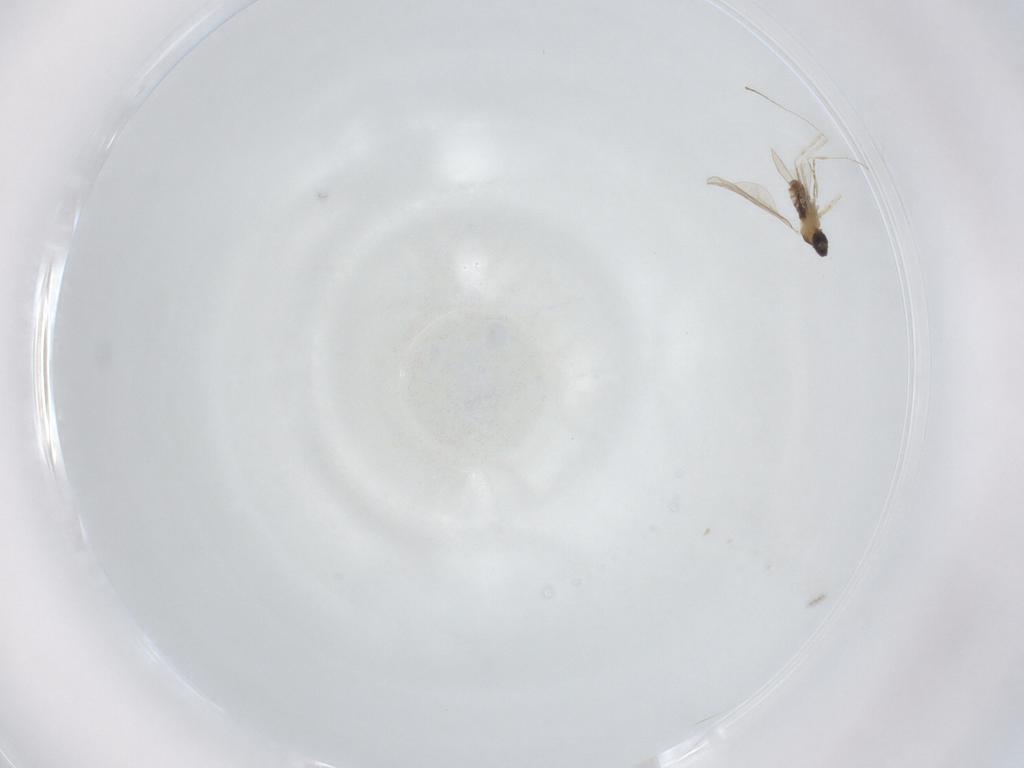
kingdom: Animalia
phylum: Arthropoda
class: Insecta
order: Diptera
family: Cecidomyiidae
